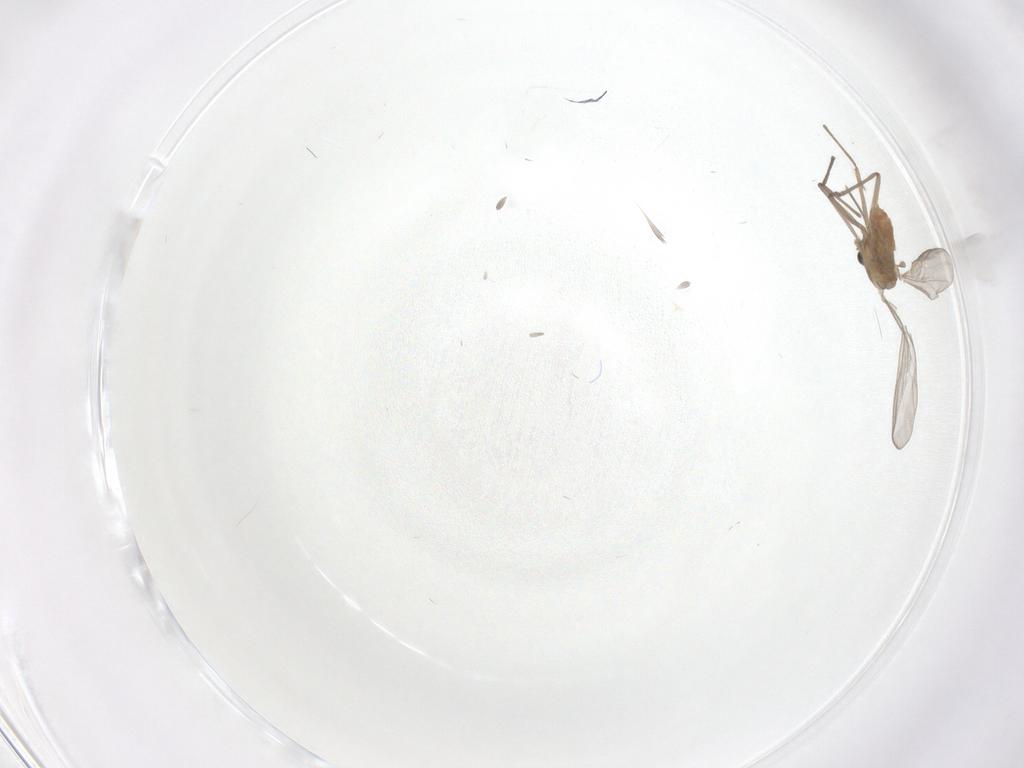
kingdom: Animalia
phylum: Arthropoda
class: Insecta
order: Diptera
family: Chironomidae
